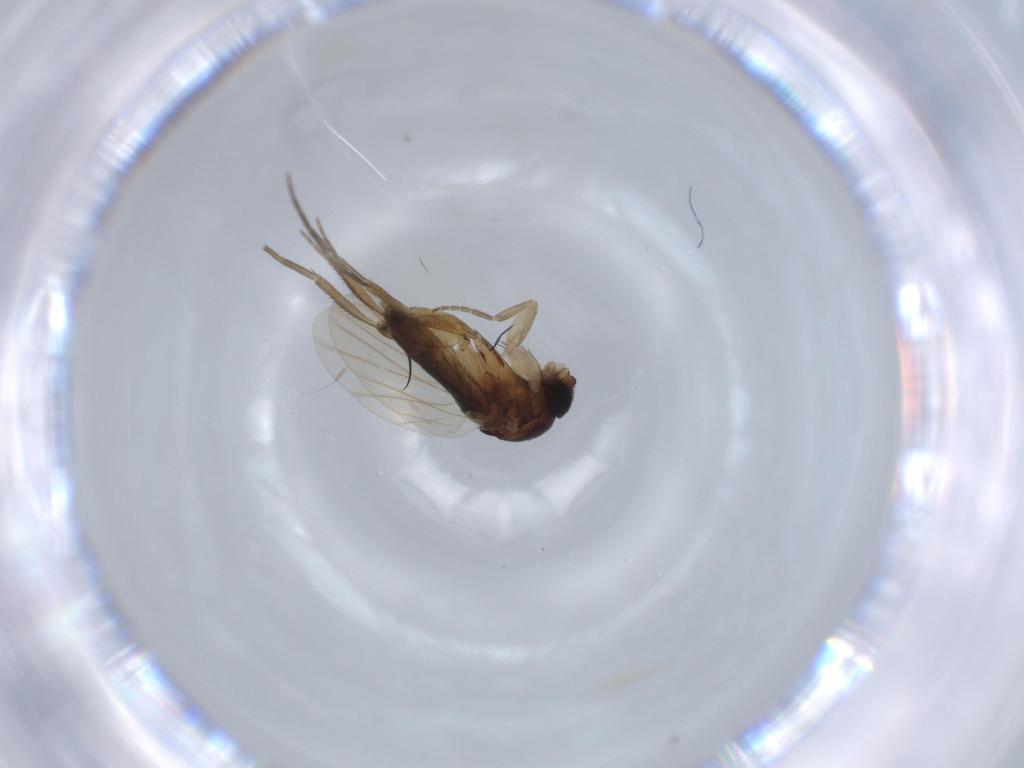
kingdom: Animalia
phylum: Arthropoda
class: Insecta
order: Diptera
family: Muscidae
